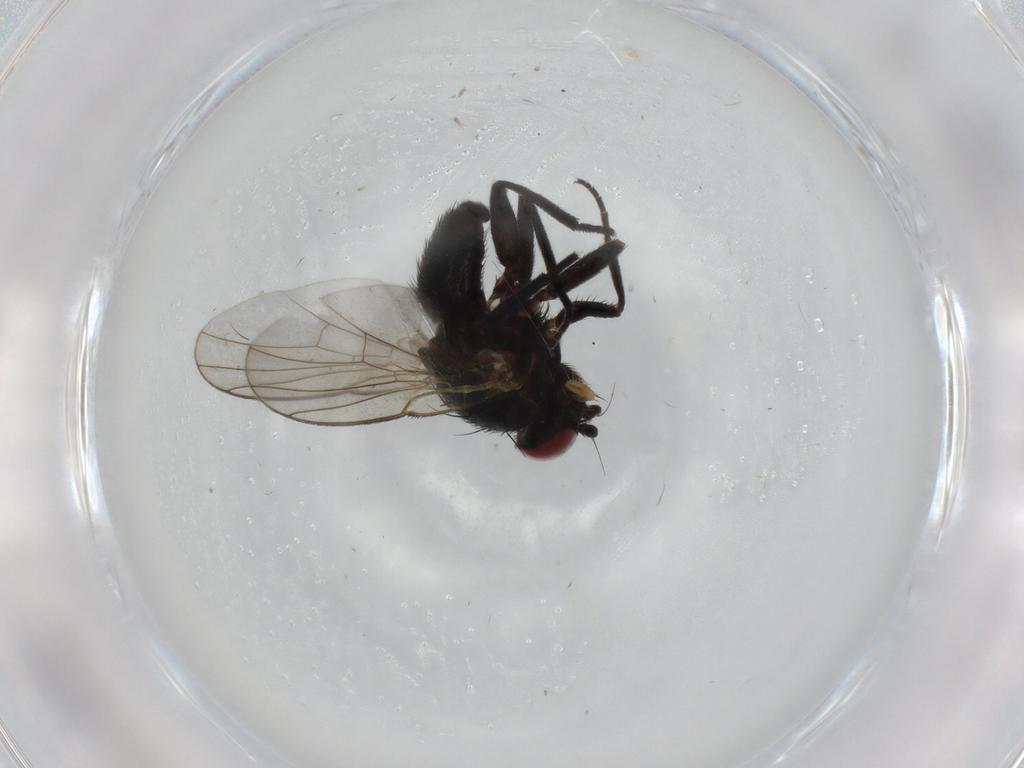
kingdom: Animalia
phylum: Arthropoda
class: Insecta
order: Diptera
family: Agromyzidae
